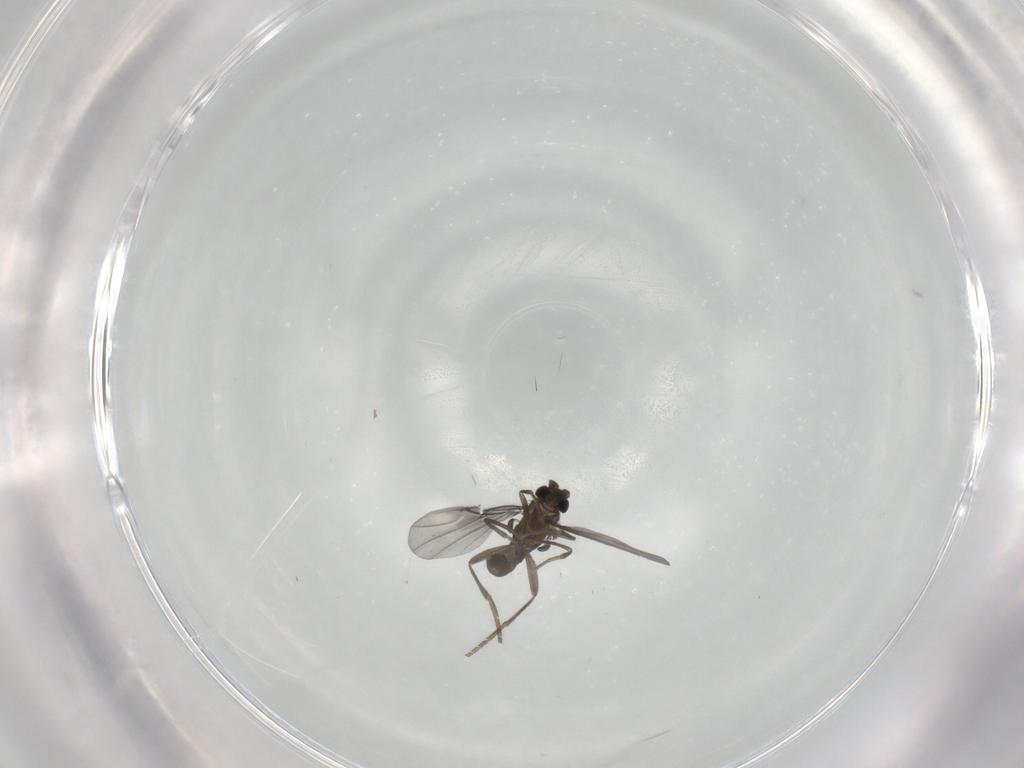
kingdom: Animalia
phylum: Arthropoda
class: Insecta
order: Diptera
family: Phoridae
